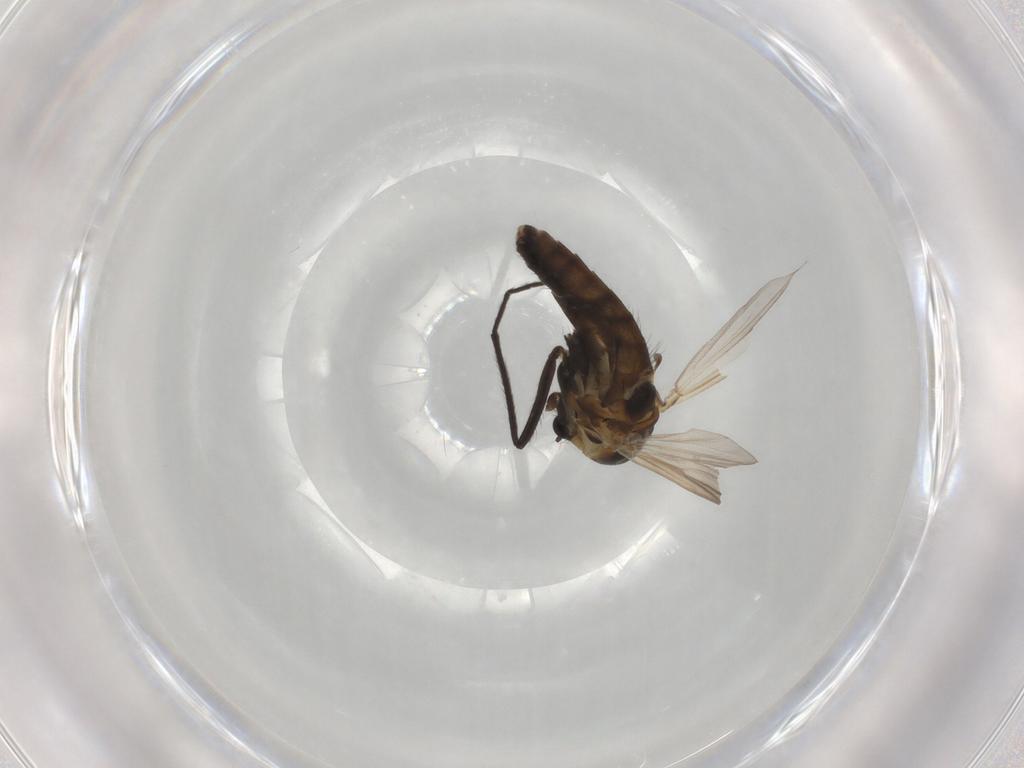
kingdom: Animalia
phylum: Arthropoda
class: Insecta
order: Diptera
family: Chironomidae
